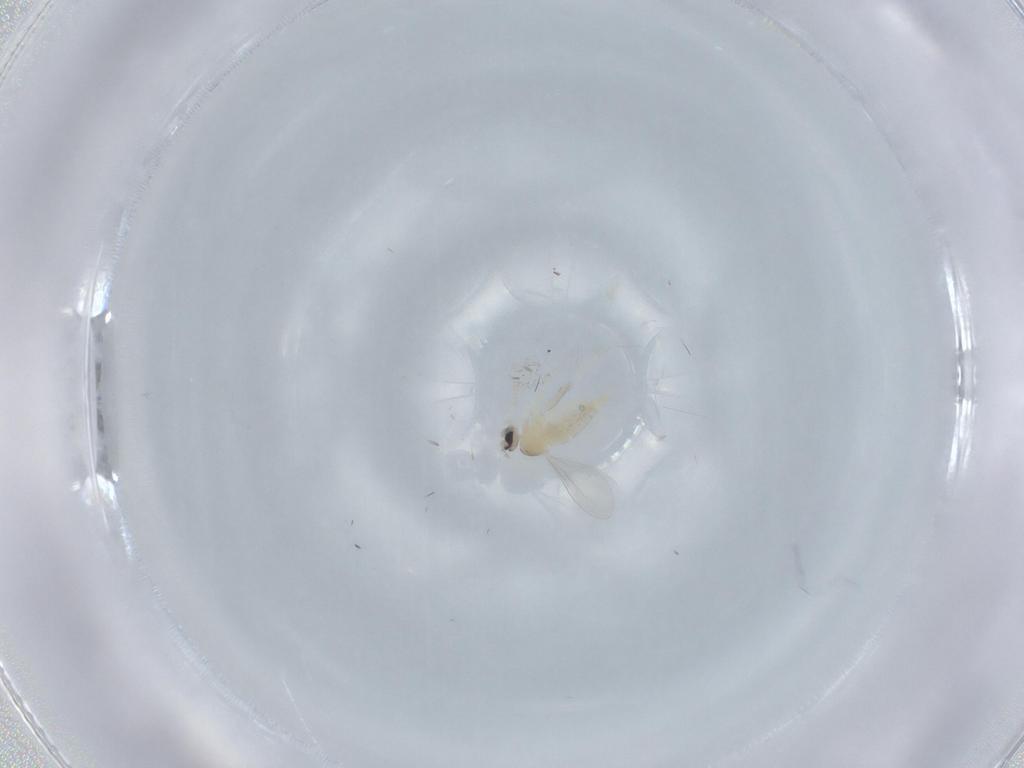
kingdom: Animalia
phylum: Arthropoda
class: Insecta
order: Diptera
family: Cecidomyiidae
